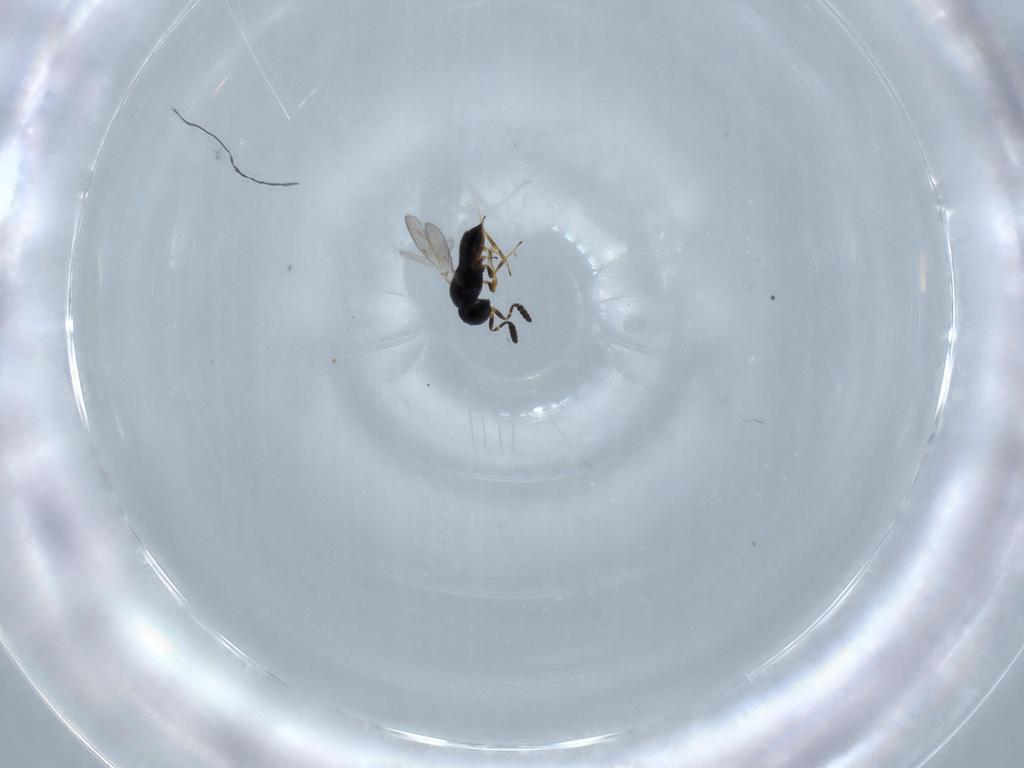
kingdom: Animalia
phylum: Arthropoda
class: Insecta
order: Hymenoptera
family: Scelionidae
